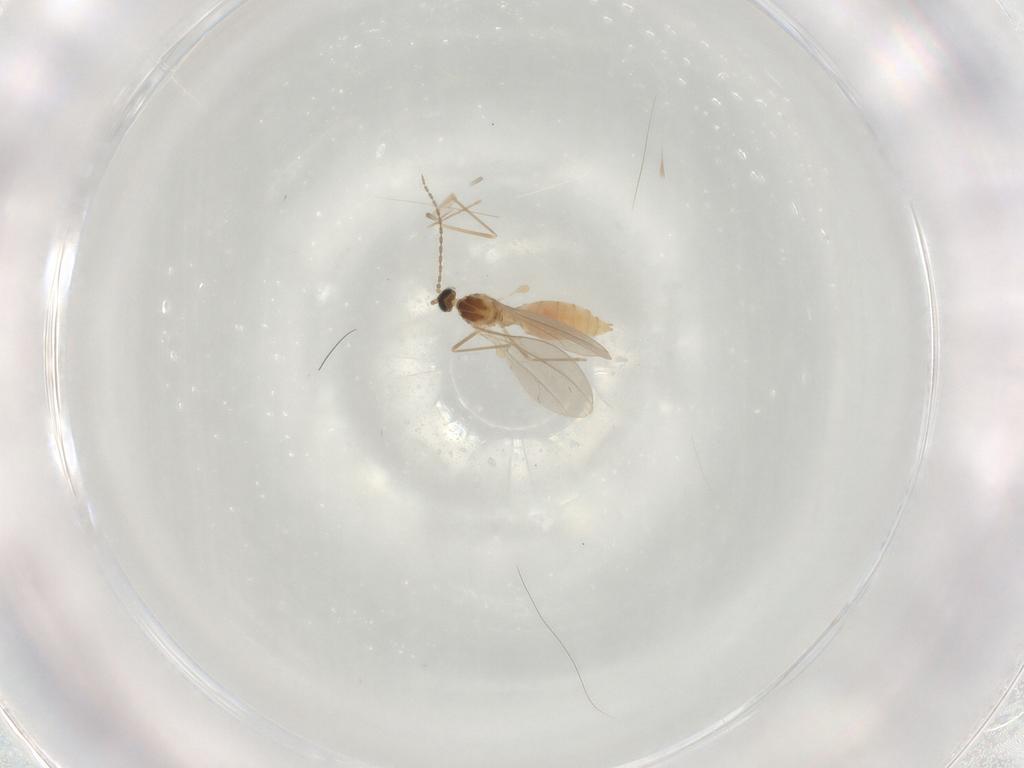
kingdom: Animalia
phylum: Arthropoda
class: Insecta
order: Diptera
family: Cecidomyiidae
